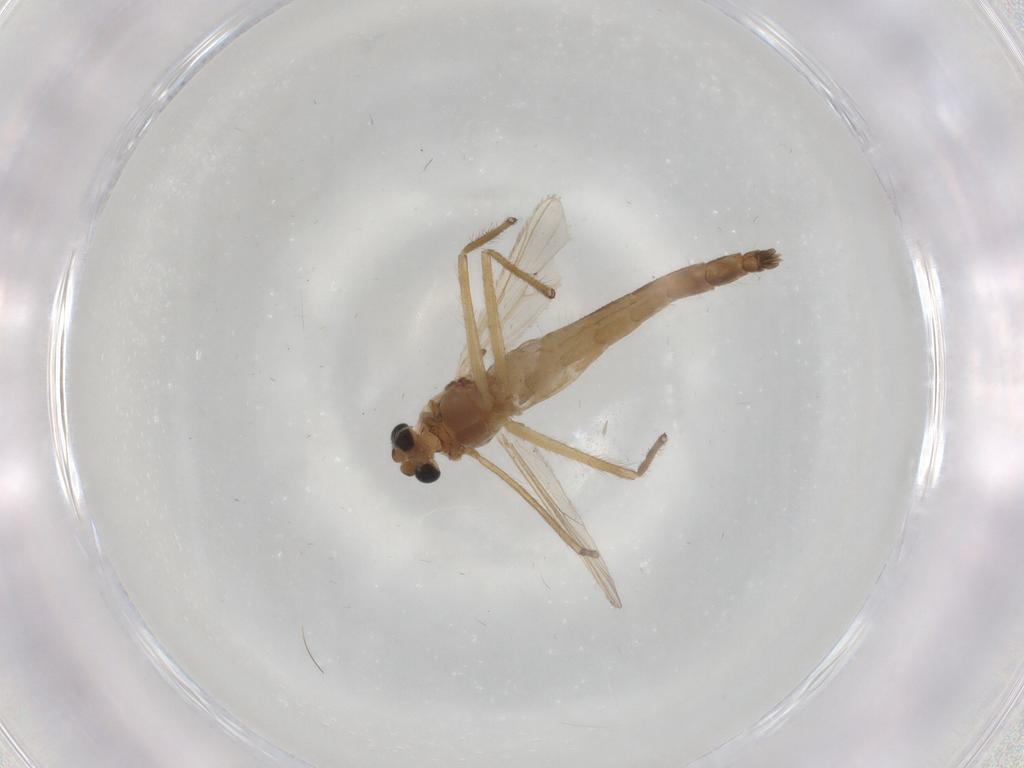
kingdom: Animalia
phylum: Arthropoda
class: Insecta
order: Diptera
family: Chironomidae
